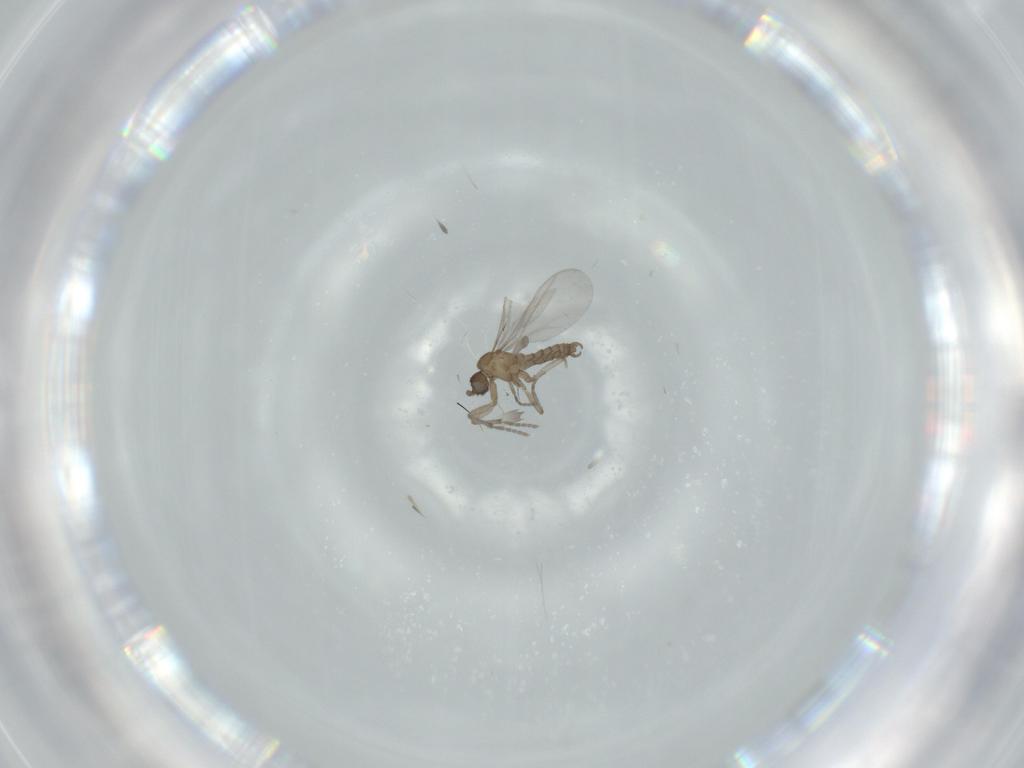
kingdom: Animalia
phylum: Arthropoda
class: Insecta
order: Diptera
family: Sciaridae
